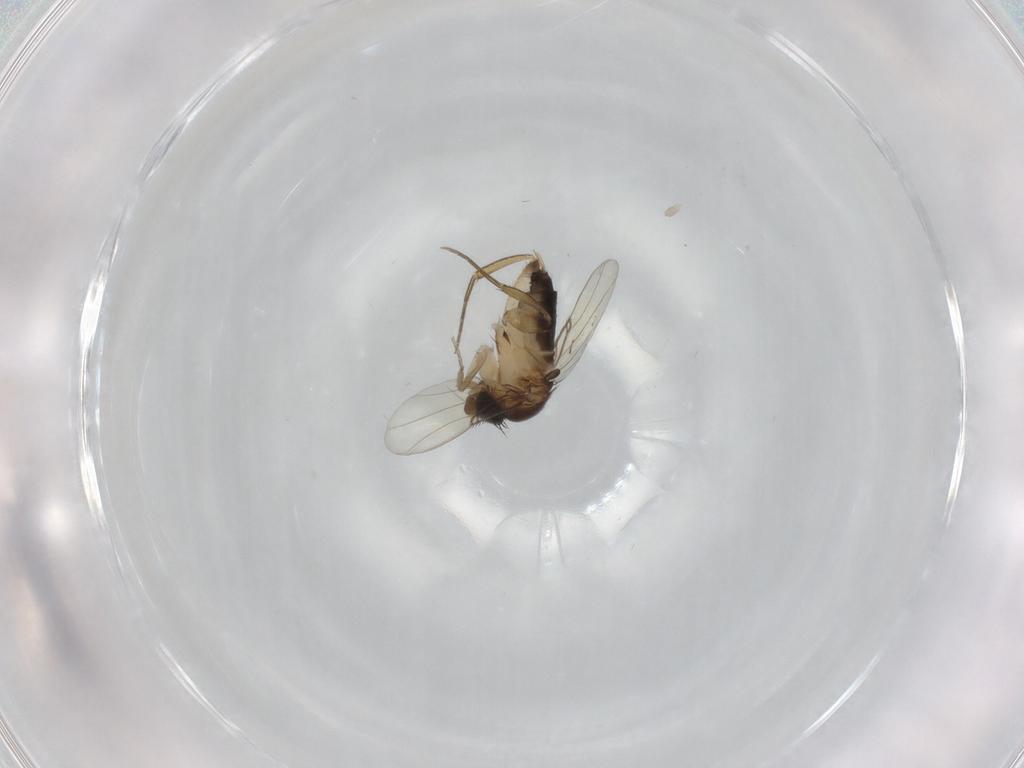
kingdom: Animalia
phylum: Arthropoda
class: Insecta
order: Diptera
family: Phoridae
